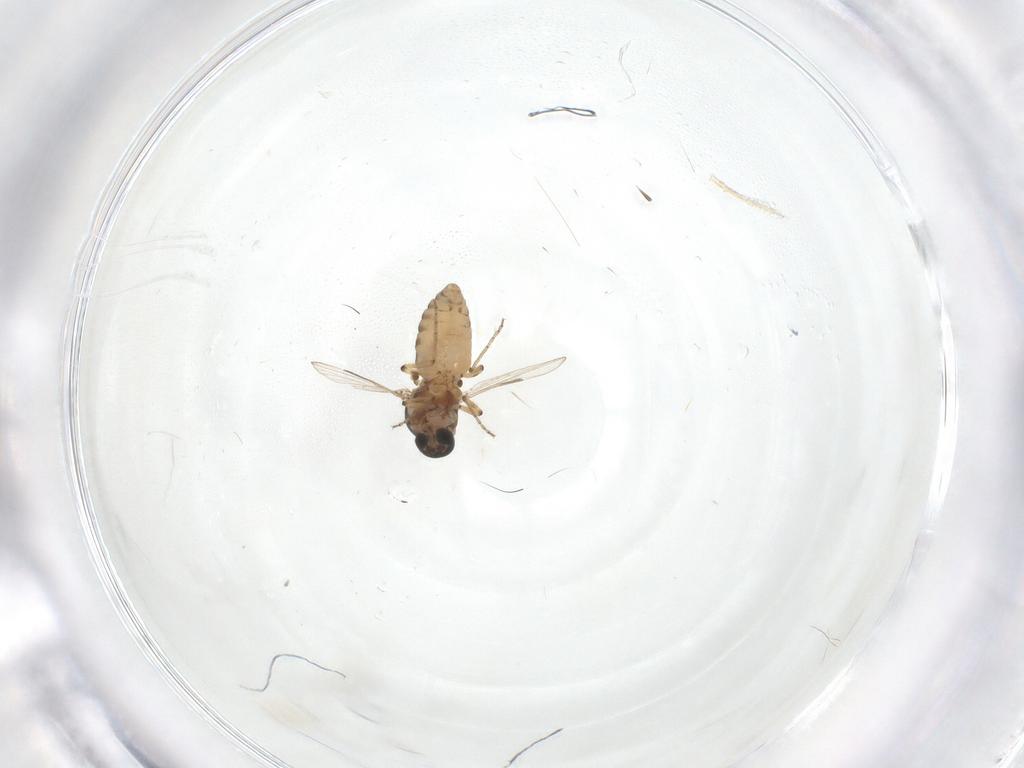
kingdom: Animalia
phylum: Arthropoda
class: Insecta
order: Diptera
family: Ceratopogonidae
